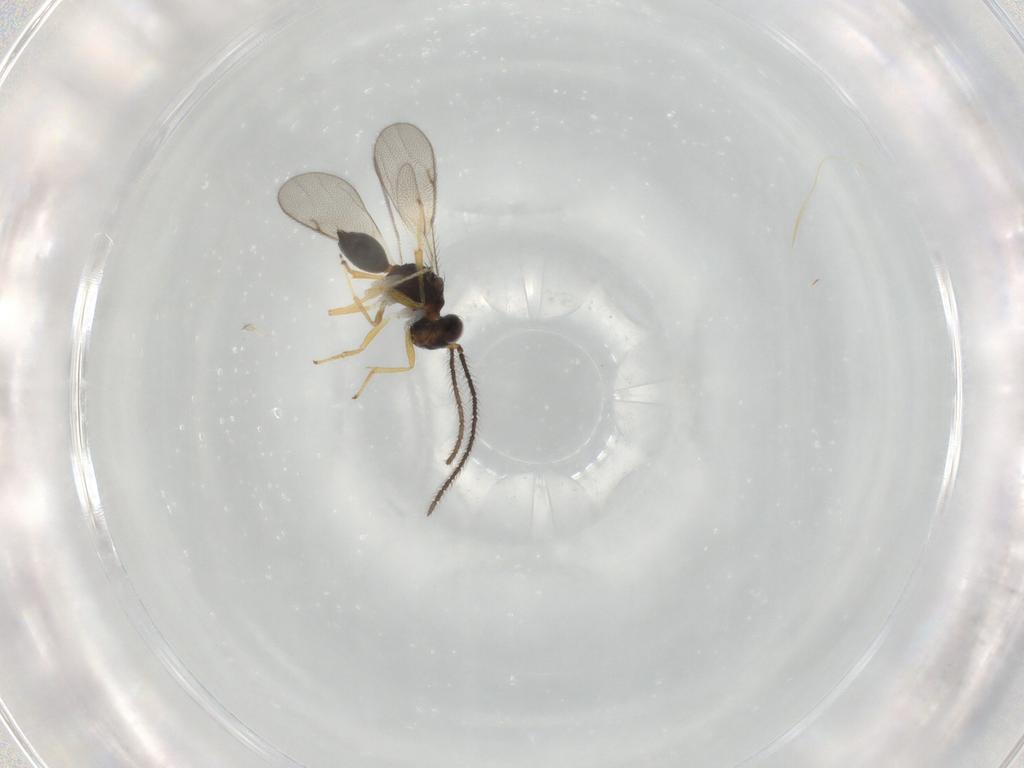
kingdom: Animalia
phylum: Arthropoda
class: Insecta
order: Hymenoptera
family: Diparidae
